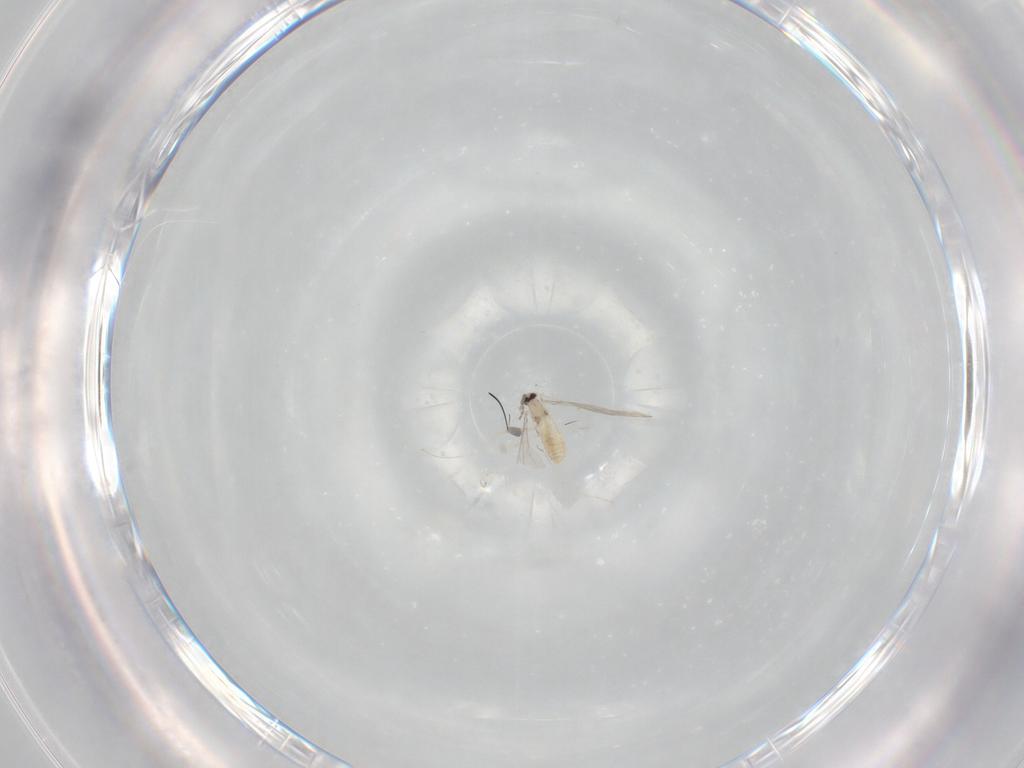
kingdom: Animalia
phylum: Arthropoda
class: Insecta
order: Diptera
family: Cecidomyiidae
